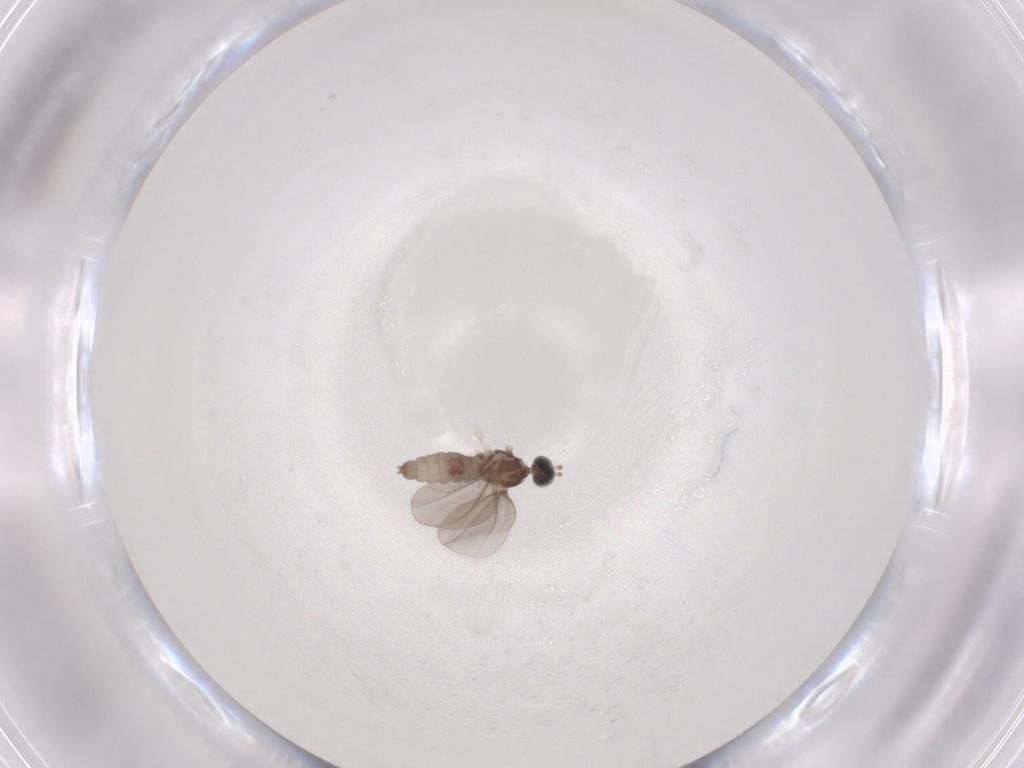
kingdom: Animalia
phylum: Arthropoda
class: Insecta
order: Diptera
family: Cecidomyiidae
